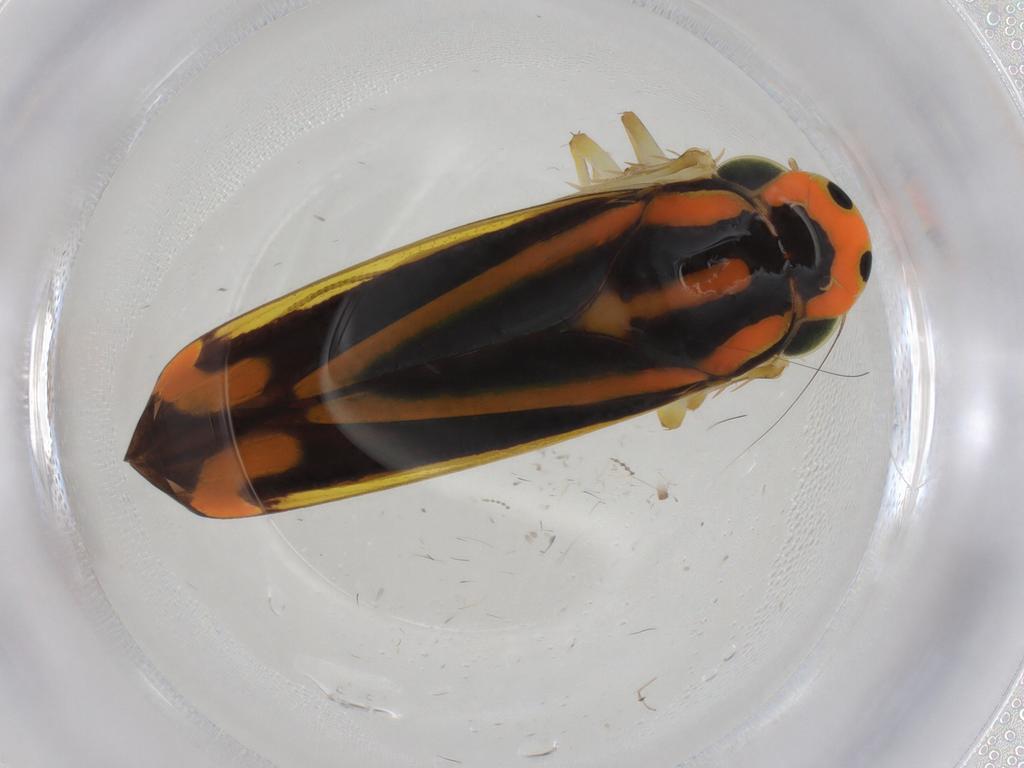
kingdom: Animalia
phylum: Arthropoda
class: Insecta
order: Hemiptera
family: Cicadellidae
